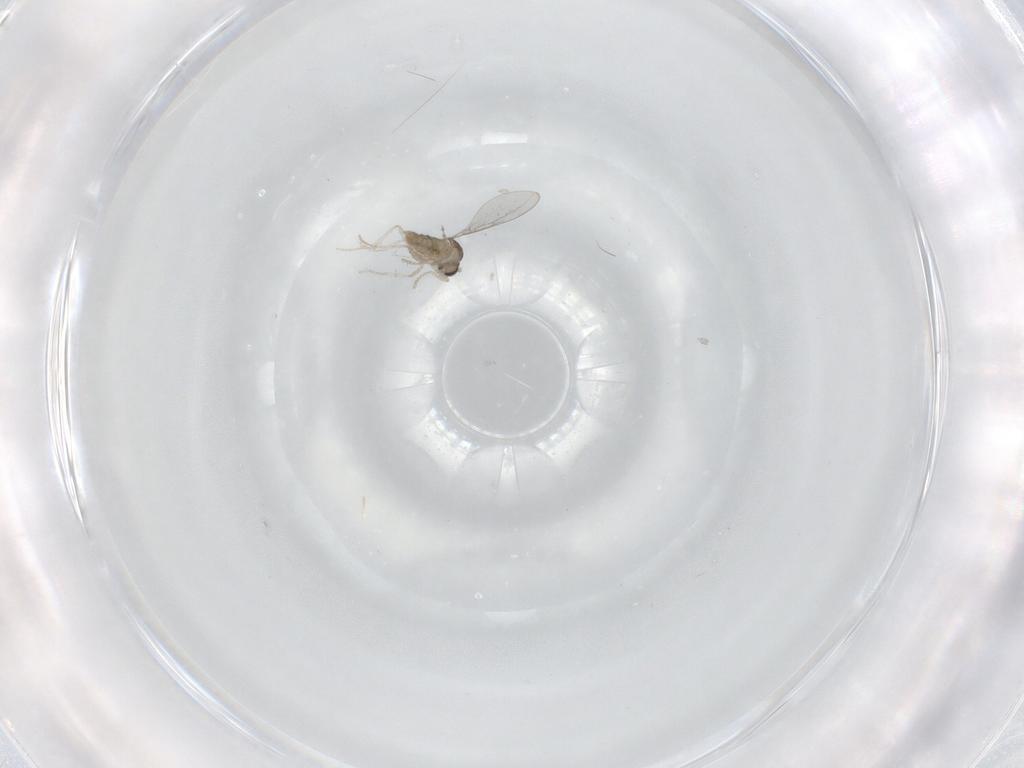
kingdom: Animalia
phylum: Arthropoda
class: Insecta
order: Diptera
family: Cecidomyiidae
